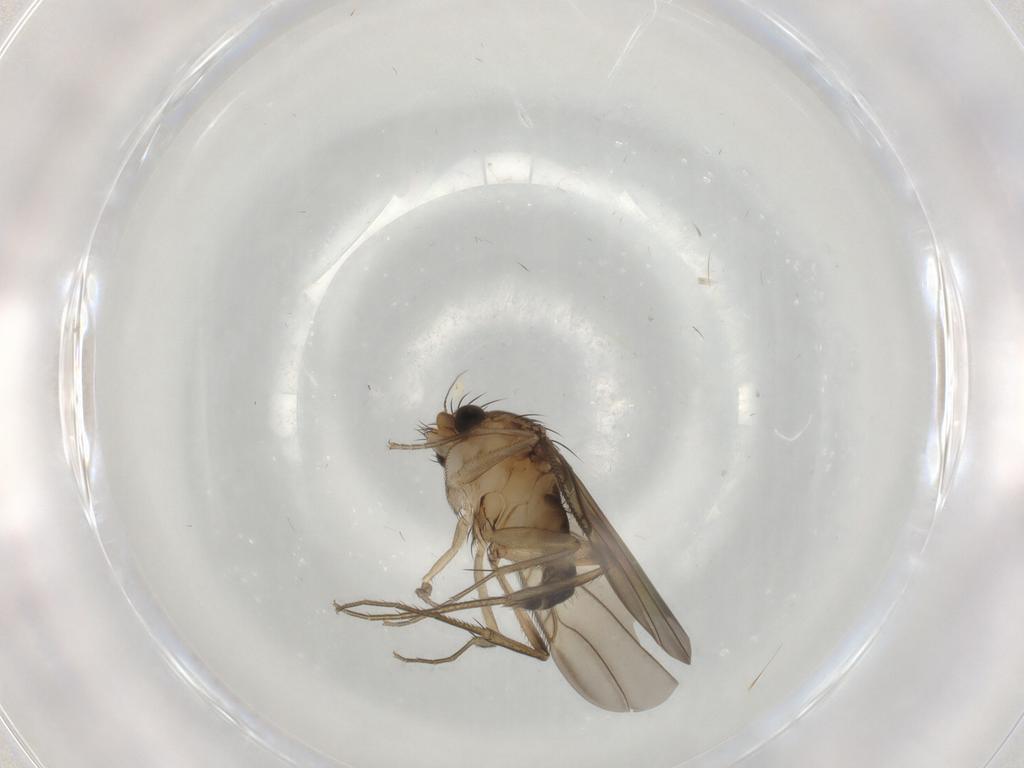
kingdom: Animalia
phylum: Arthropoda
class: Insecta
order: Diptera
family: Phoridae
